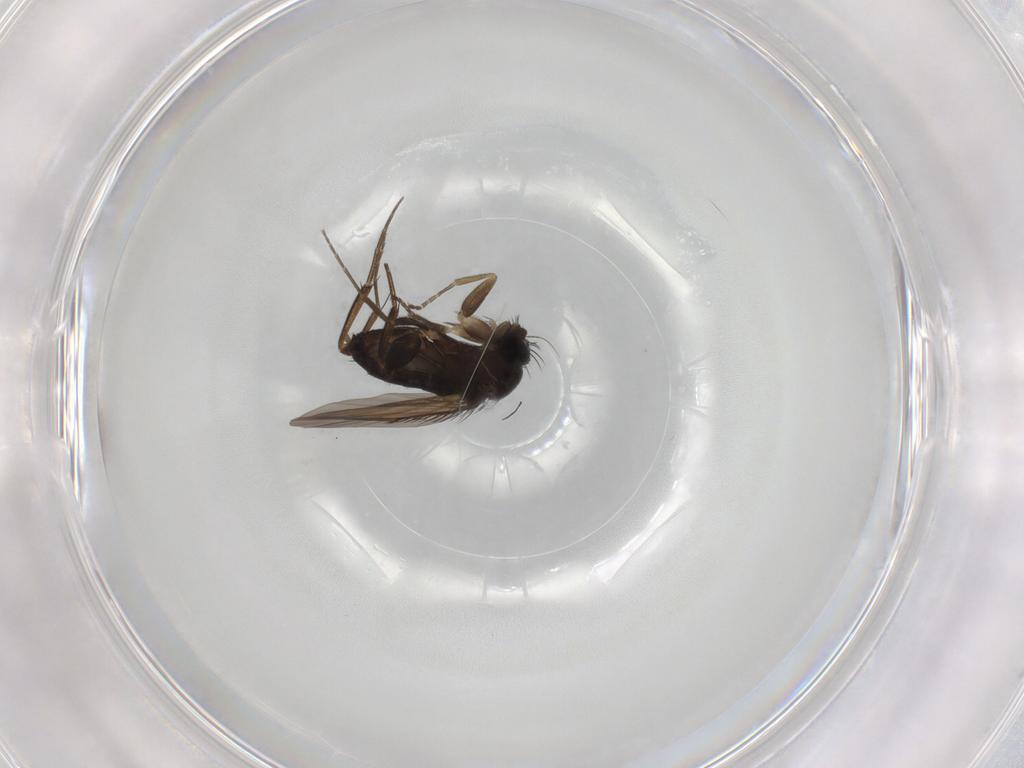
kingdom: Animalia
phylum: Arthropoda
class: Insecta
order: Diptera
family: Phoridae
